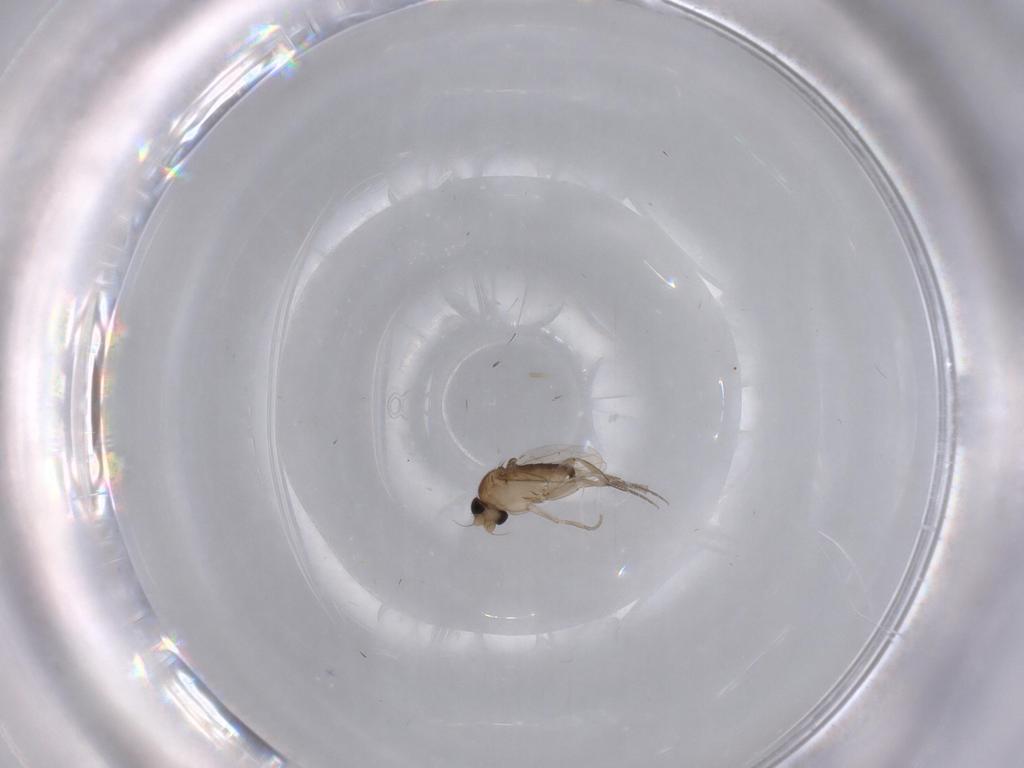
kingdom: Animalia
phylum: Arthropoda
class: Insecta
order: Diptera
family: Phoridae
